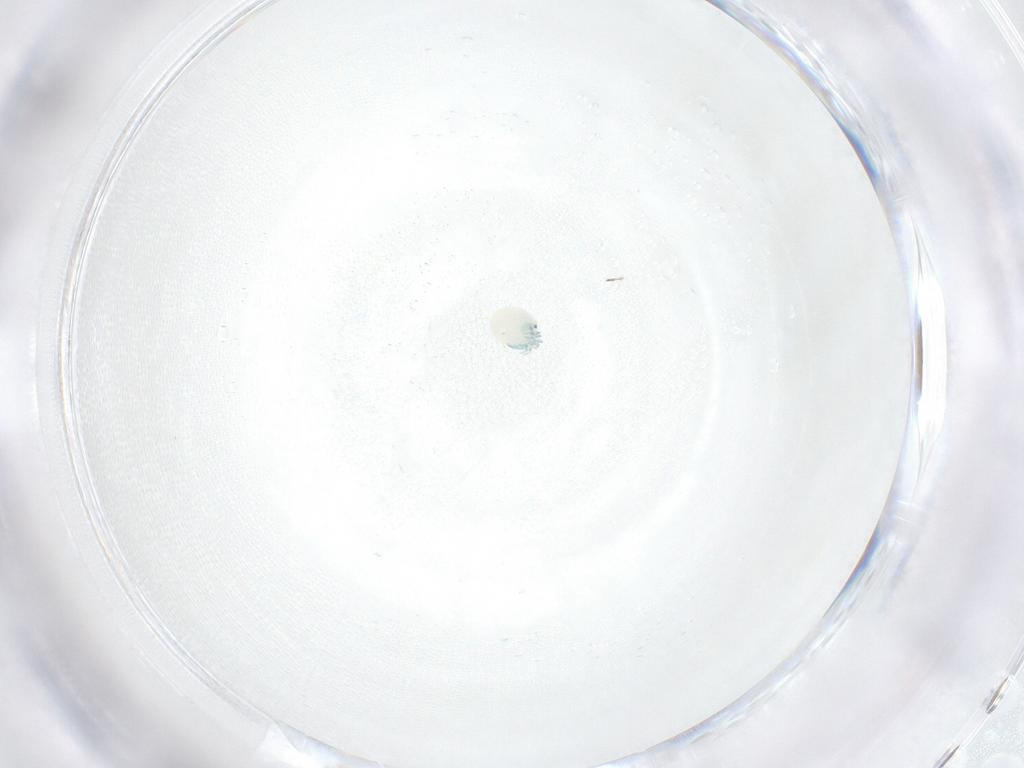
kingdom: Animalia
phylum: Arthropoda
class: Arachnida
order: Trombidiformes
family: Arrenuridae
